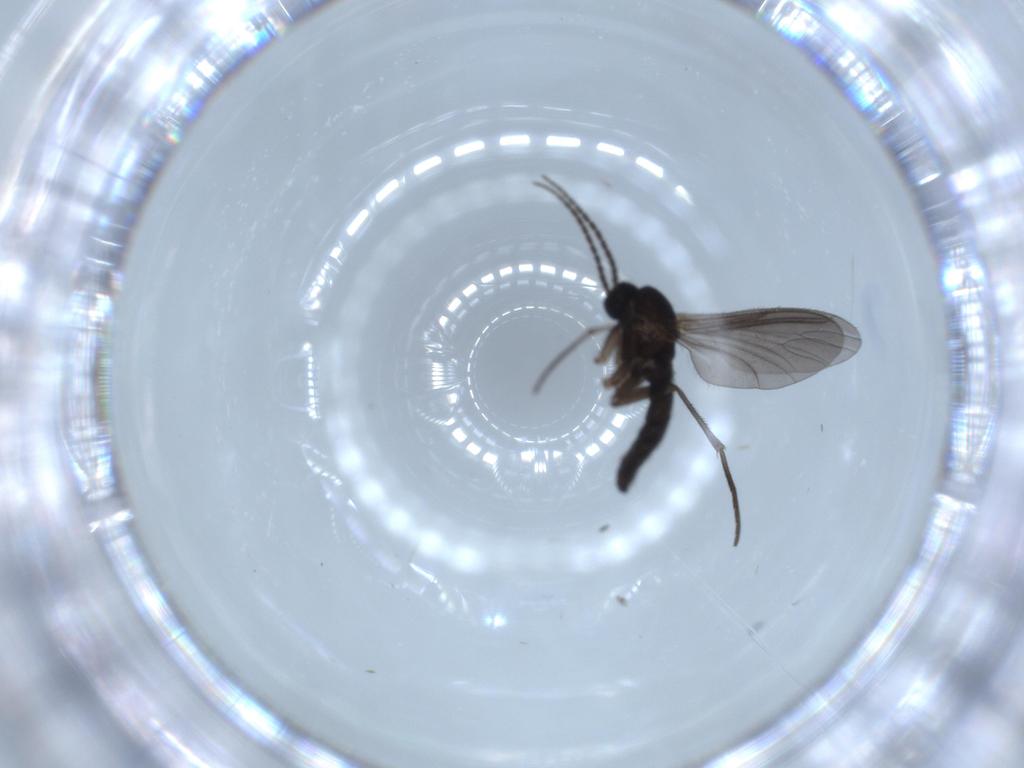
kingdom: Animalia
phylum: Arthropoda
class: Insecta
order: Diptera
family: Sciaridae
